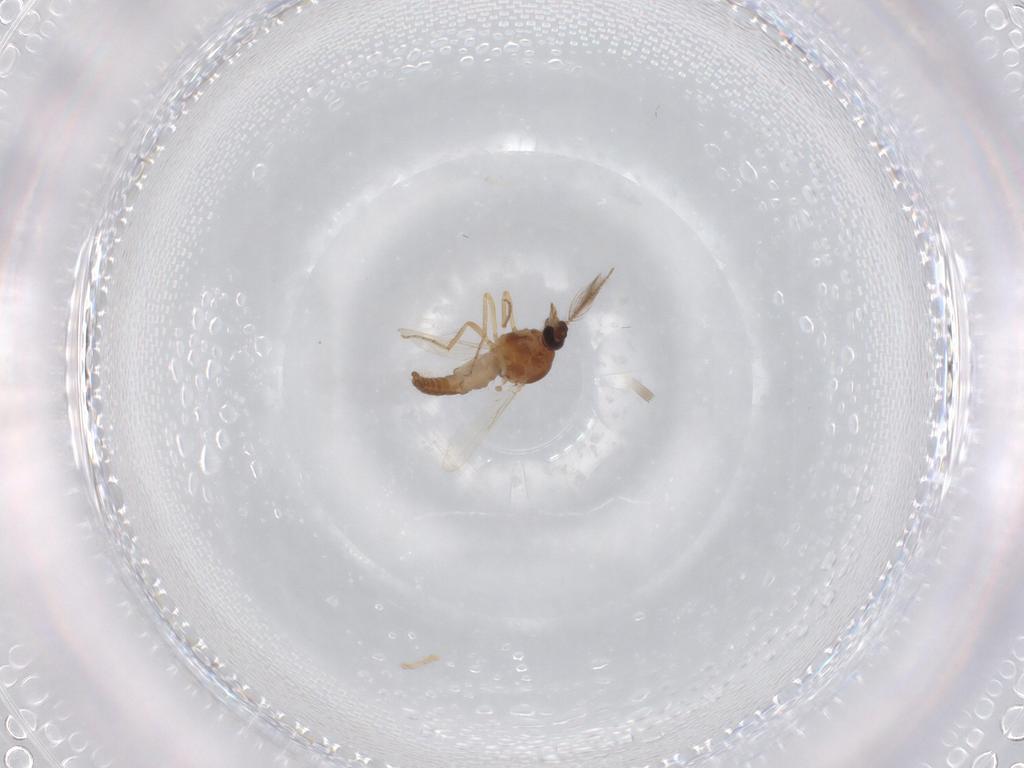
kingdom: Animalia
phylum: Arthropoda
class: Insecta
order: Diptera
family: Ceratopogonidae
